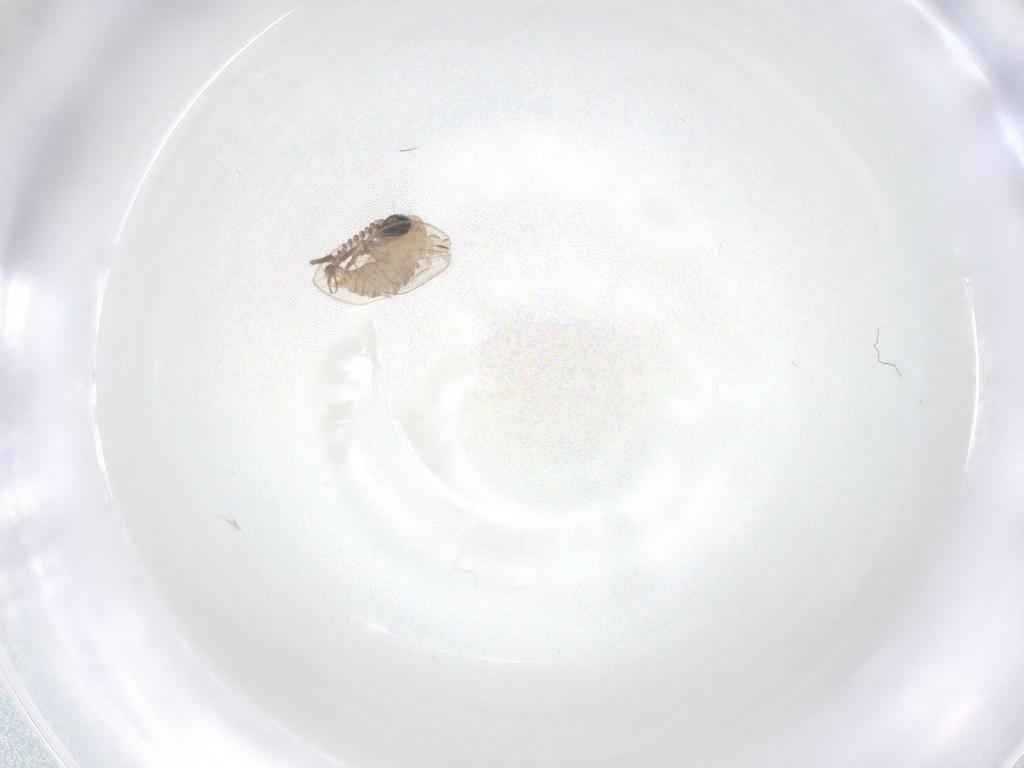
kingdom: Animalia
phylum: Arthropoda
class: Insecta
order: Diptera
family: Psychodidae
